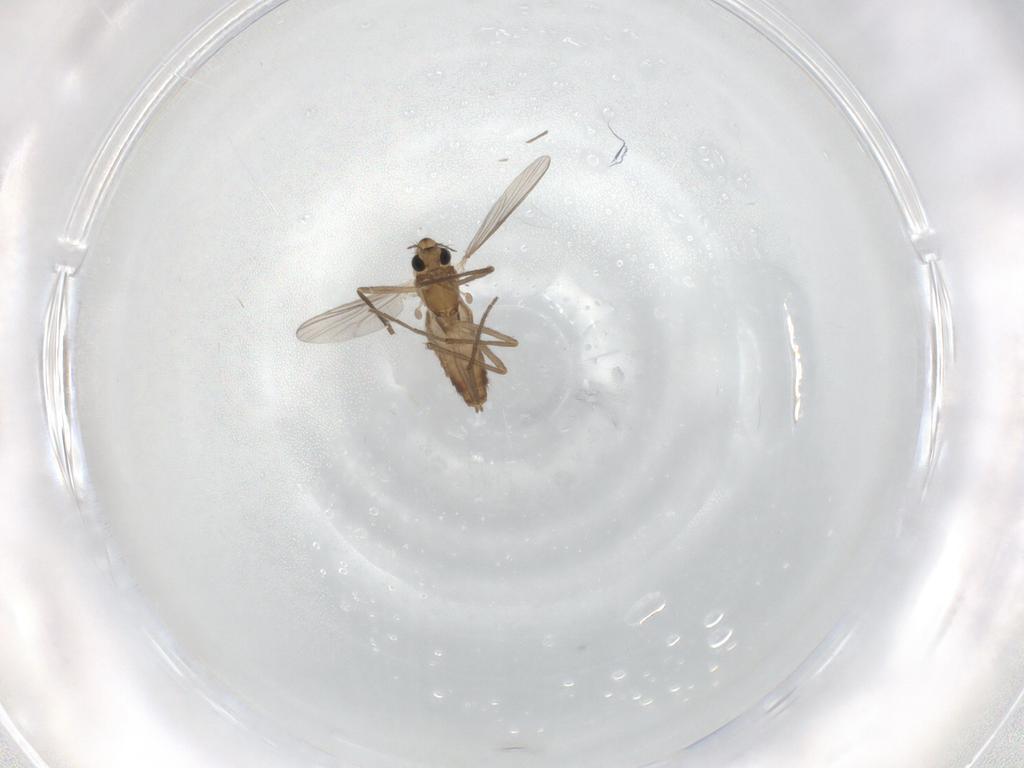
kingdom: Animalia
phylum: Arthropoda
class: Insecta
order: Diptera
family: Chironomidae
